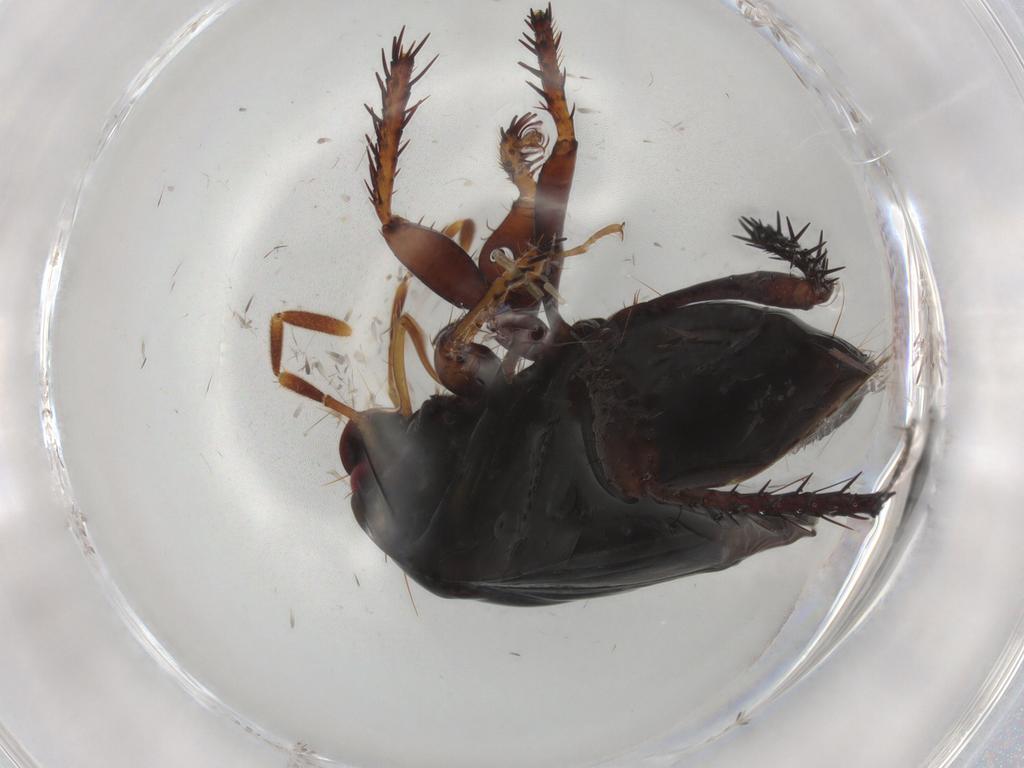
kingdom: Animalia
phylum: Arthropoda
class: Insecta
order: Hemiptera
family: Cydnidae
